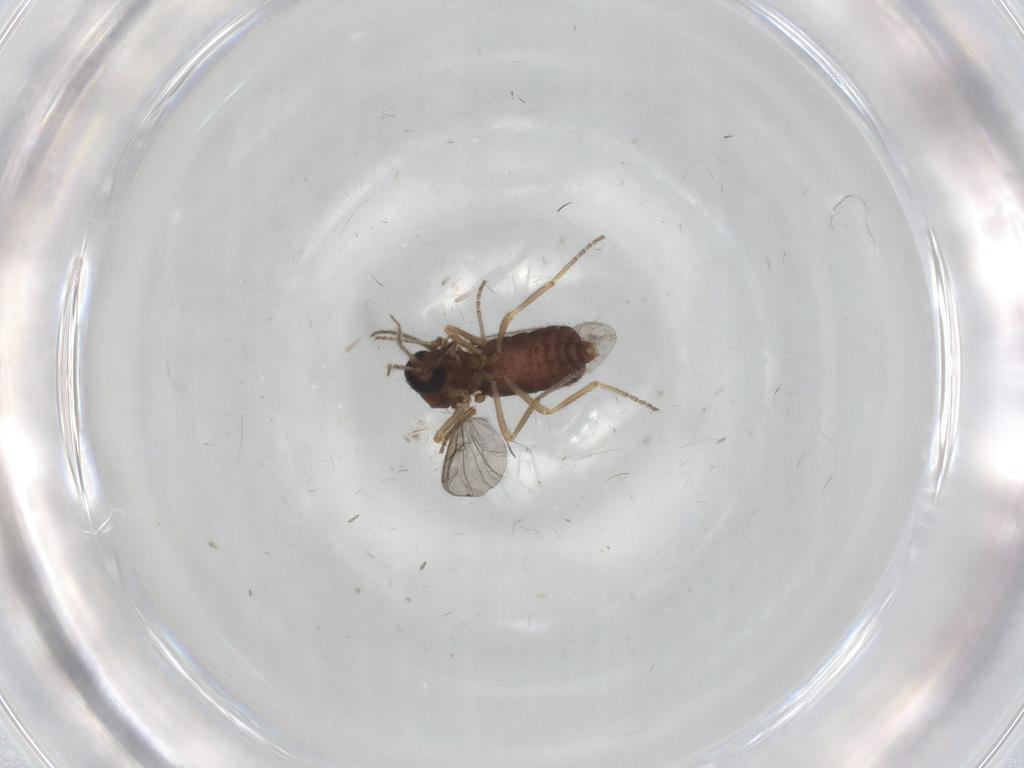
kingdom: Animalia
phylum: Arthropoda
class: Insecta
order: Diptera
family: Ceratopogonidae
